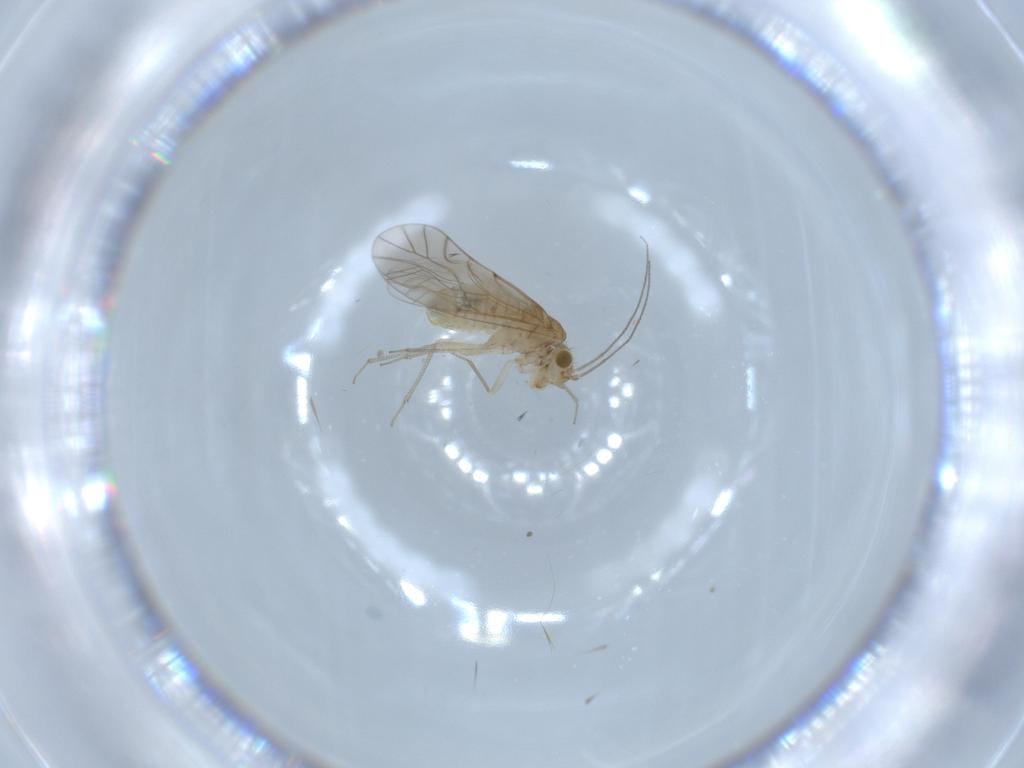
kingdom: Animalia
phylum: Arthropoda
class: Insecta
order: Psocodea
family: Lachesillidae
